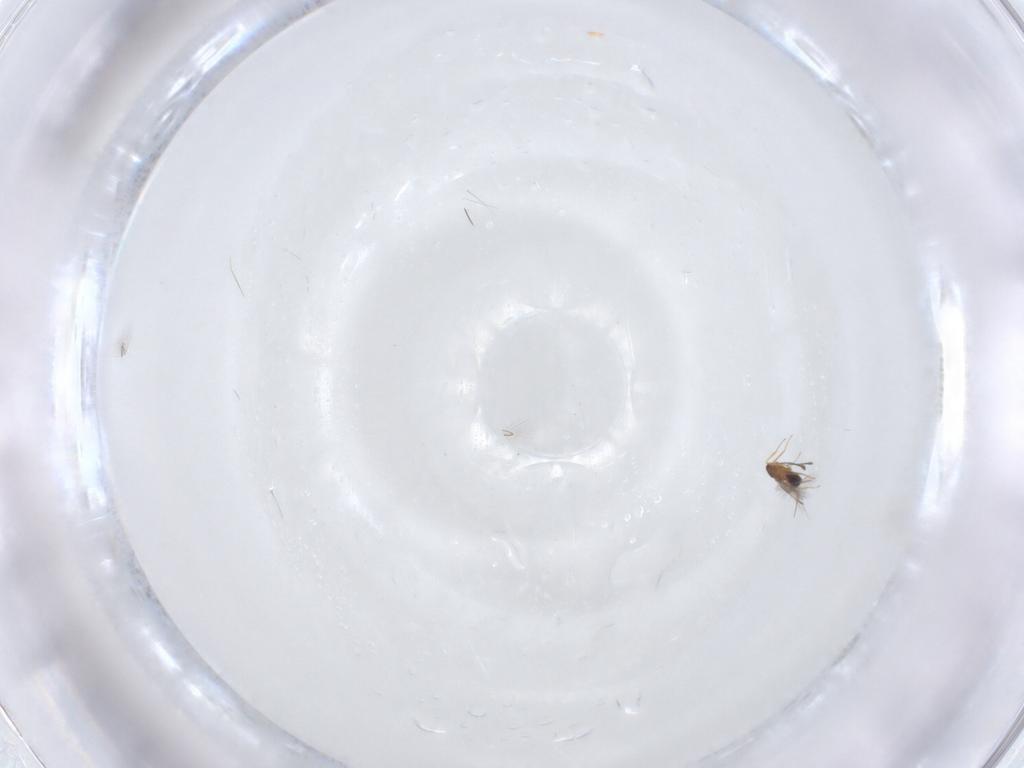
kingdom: Animalia
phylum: Arthropoda
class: Insecta
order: Hymenoptera
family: Mymaridae
